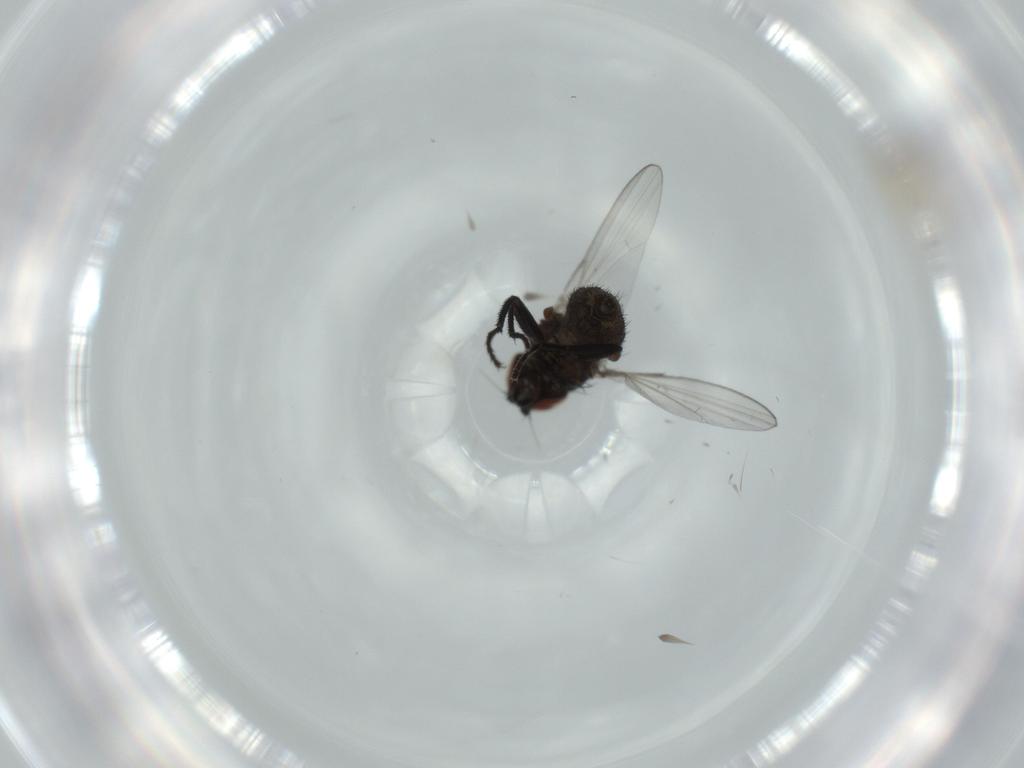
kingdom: Animalia
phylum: Arthropoda
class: Insecta
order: Diptera
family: Cecidomyiidae
